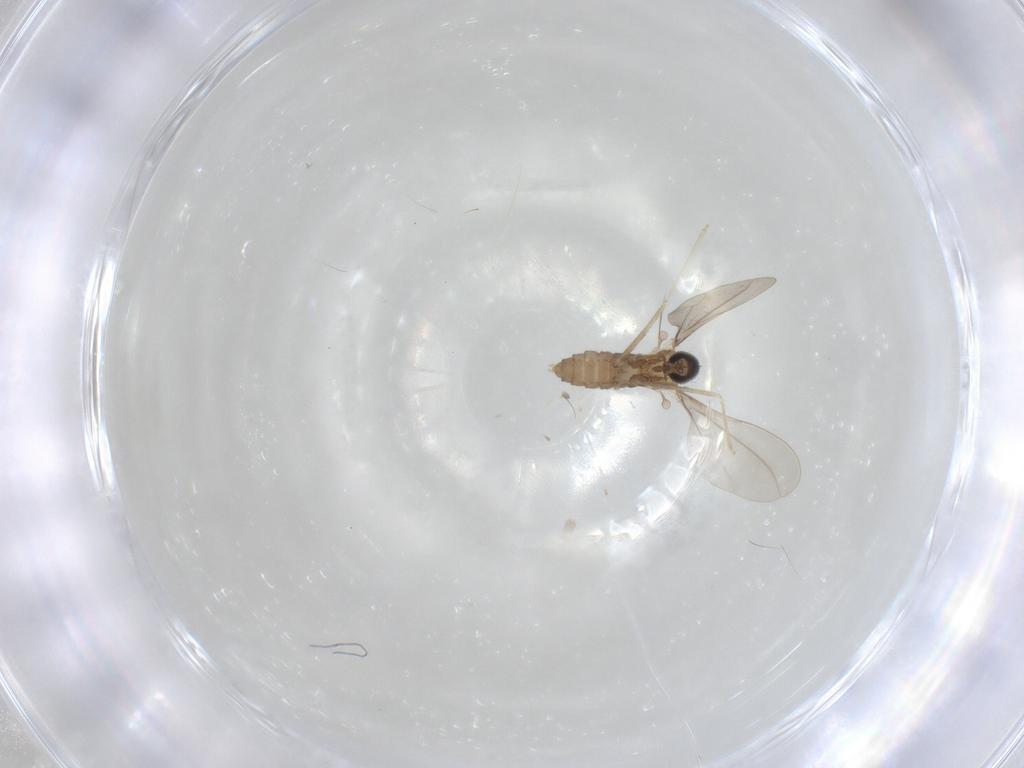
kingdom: Animalia
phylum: Arthropoda
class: Insecta
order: Diptera
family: Cecidomyiidae
